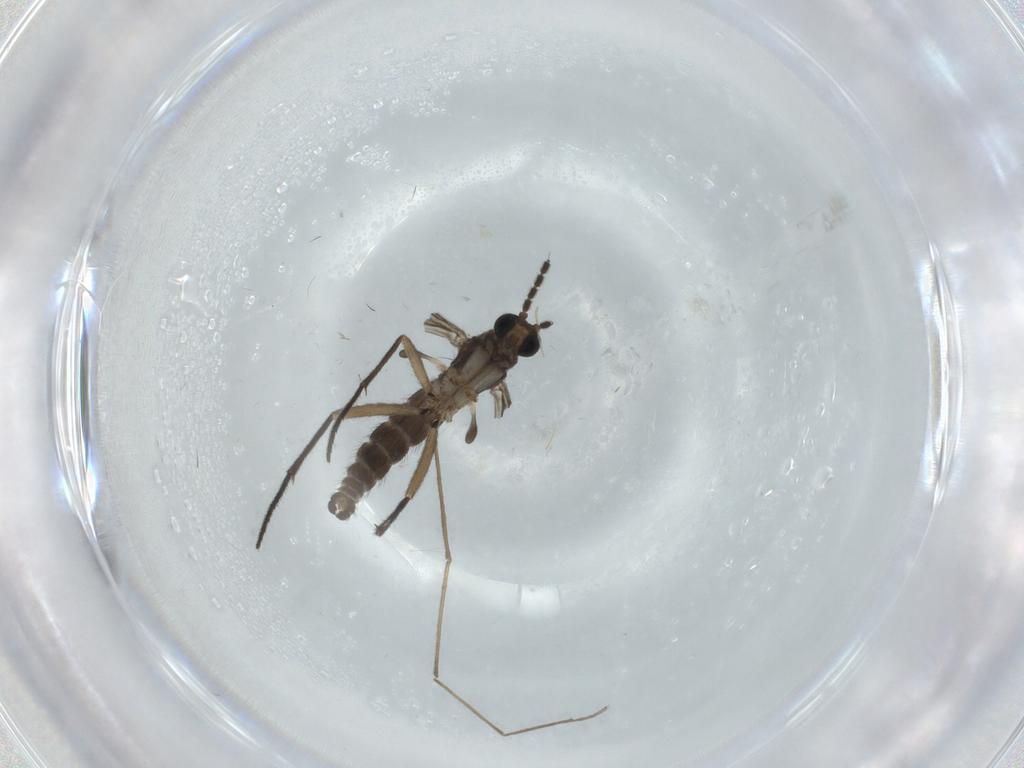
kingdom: Animalia
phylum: Arthropoda
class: Insecta
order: Diptera
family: Sciaridae
